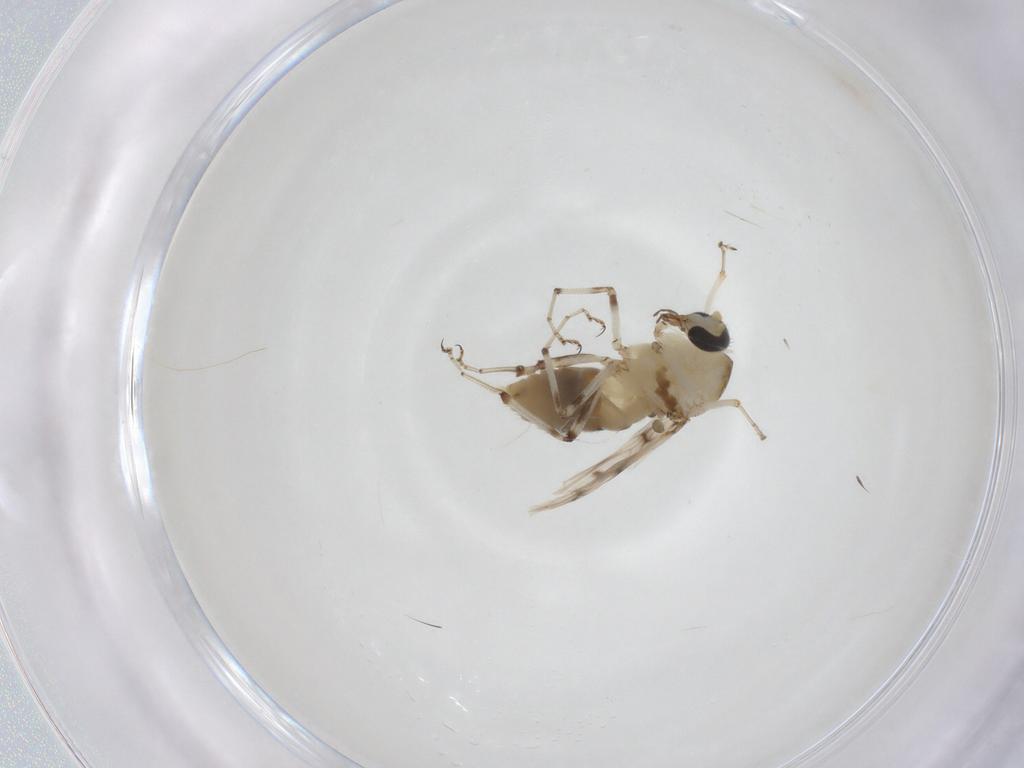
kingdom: Animalia
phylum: Arthropoda
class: Insecta
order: Diptera
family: Ceratopogonidae
